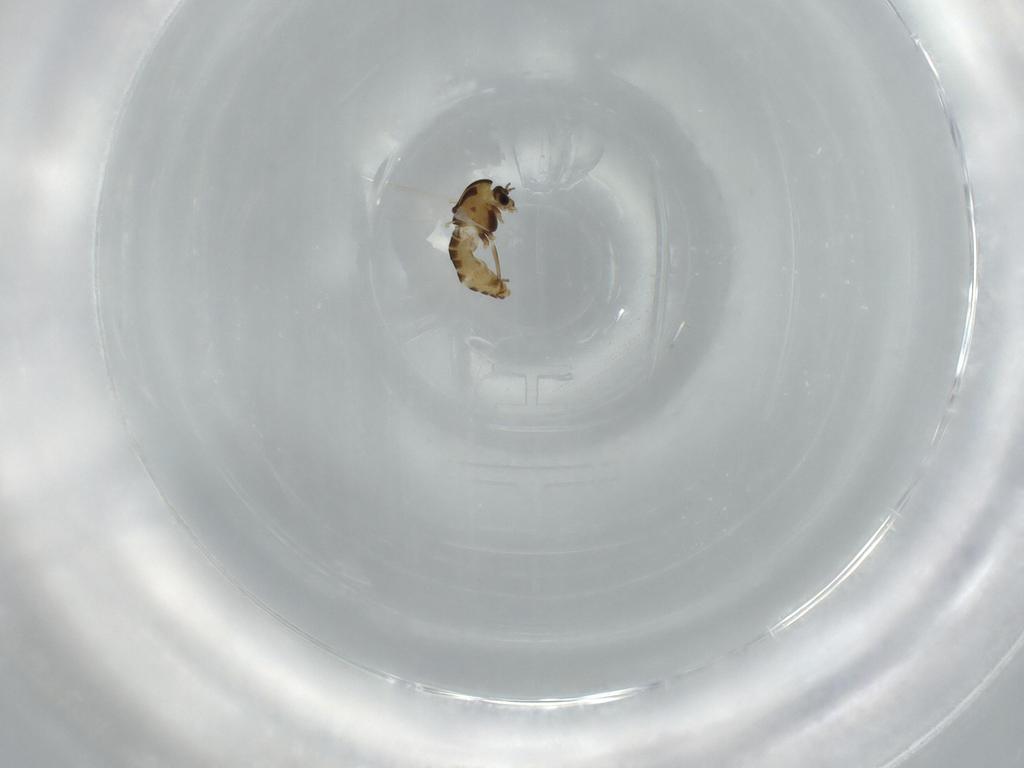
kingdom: Animalia
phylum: Arthropoda
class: Insecta
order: Diptera
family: Chironomidae
